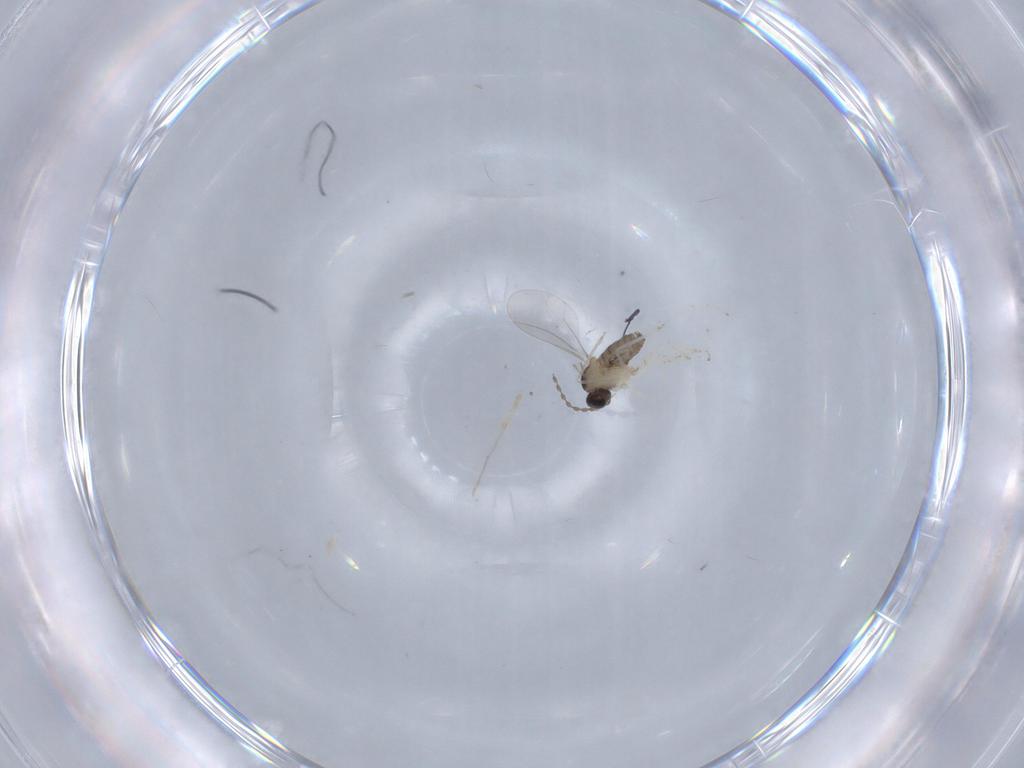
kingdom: Animalia
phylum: Arthropoda
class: Insecta
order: Diptera
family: Cecidomyiidae
